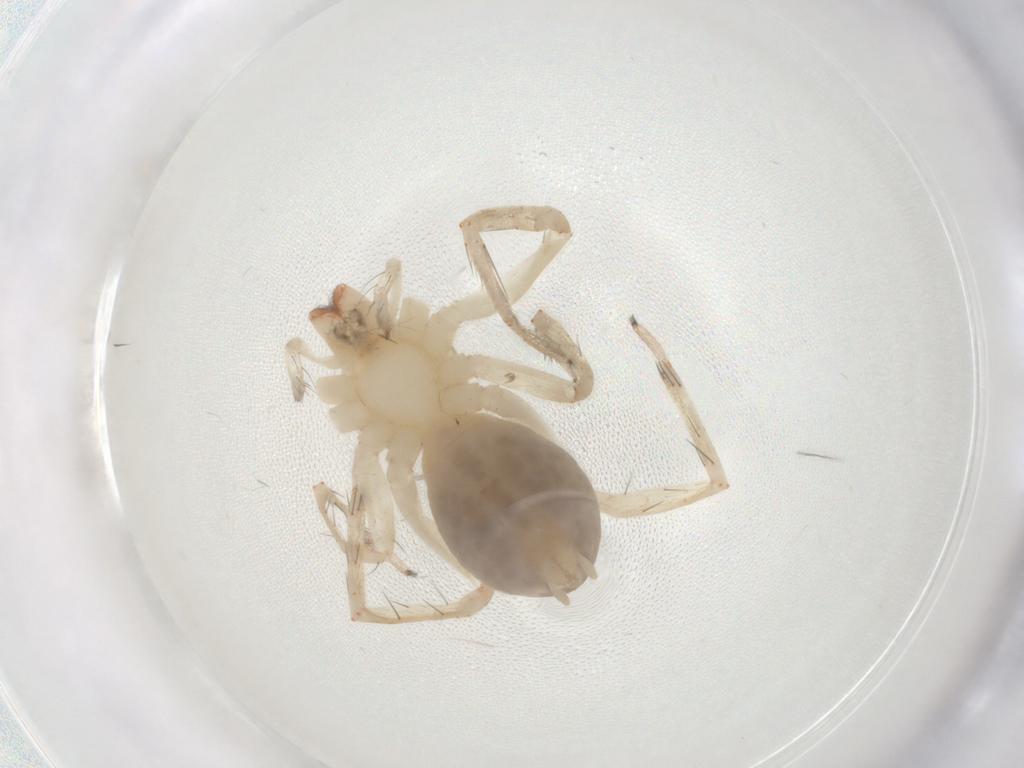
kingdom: Animalia
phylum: Arthropoda
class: Arachnida
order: Araneae
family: Anyphaenidae
